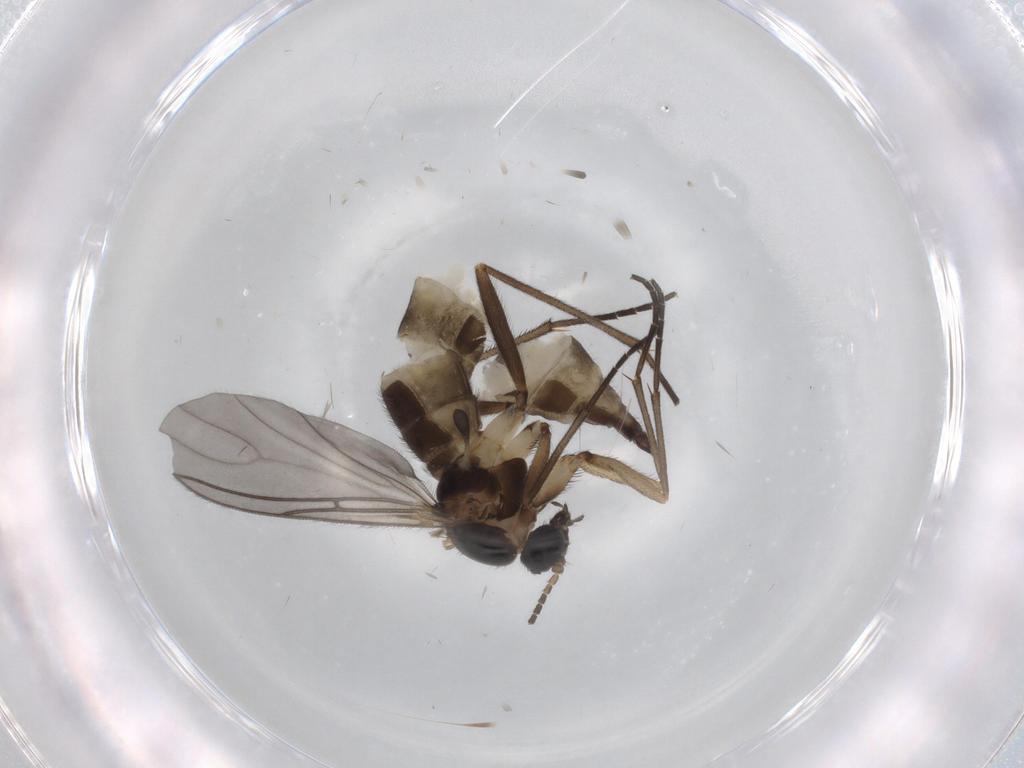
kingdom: Animalia
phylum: Arthropoda
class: Insecta
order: Diptera
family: Sciaridae
